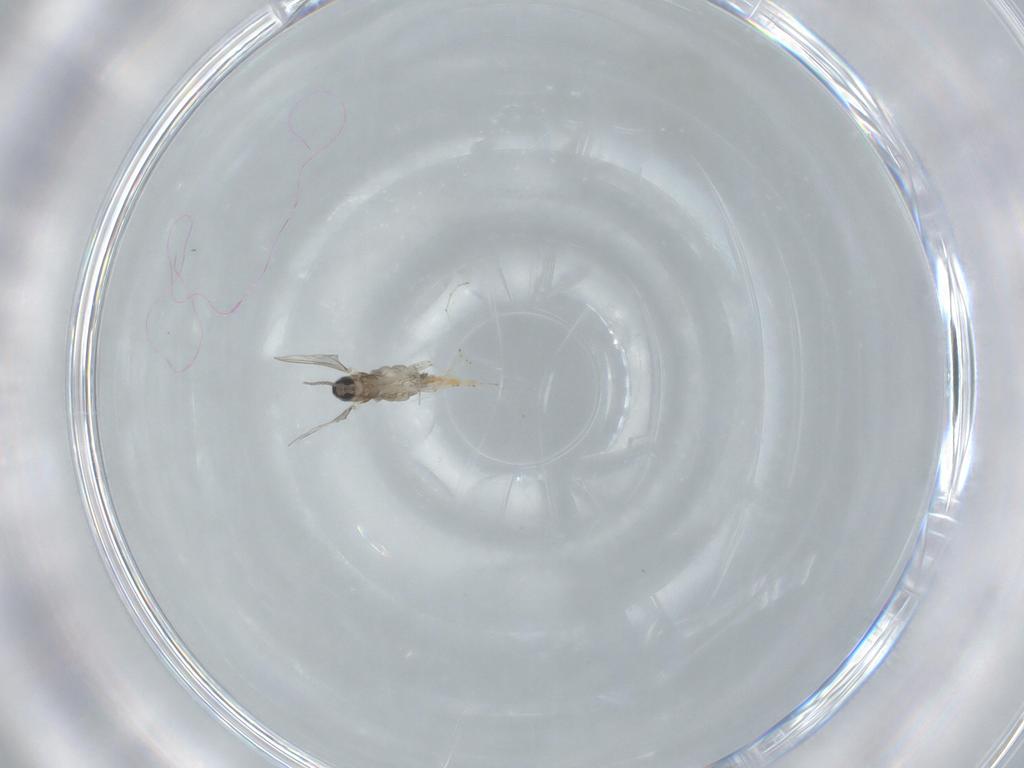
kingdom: Animalia
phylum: Arthropoda
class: Insecta
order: Diptera
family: Cecidomyiidae
